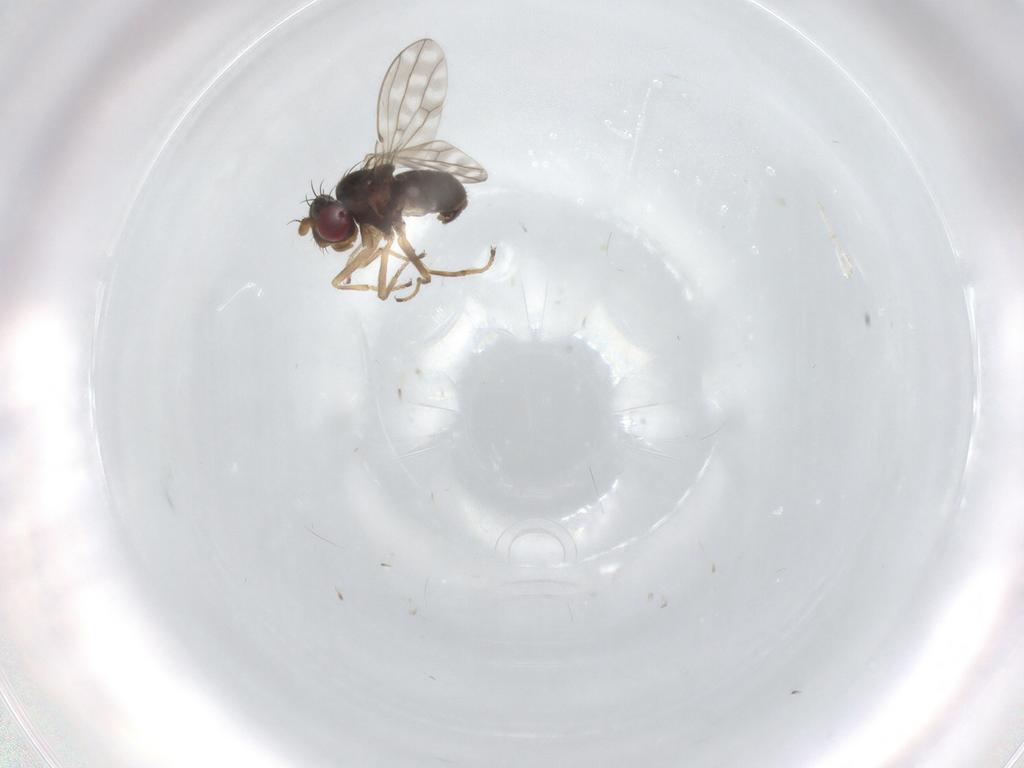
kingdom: Animalia
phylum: Arthropoda
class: Insecta
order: Diptera
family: Ephydridae
